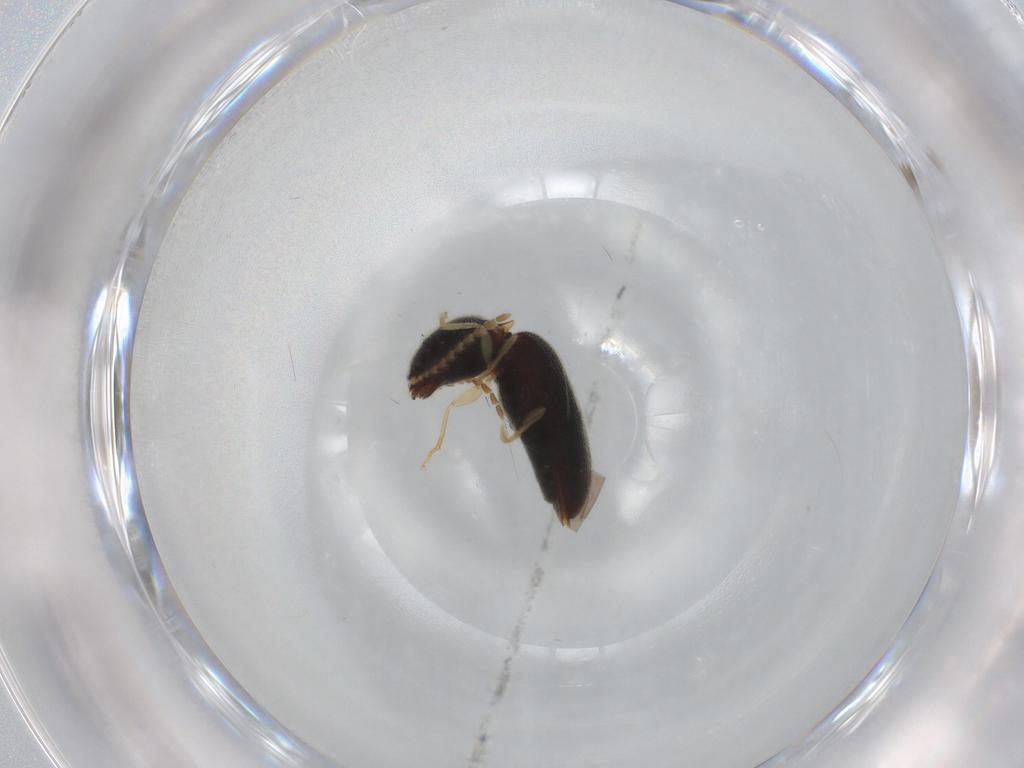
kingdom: Animalia
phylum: Arthropoda
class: Insecta
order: Coleoptera
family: Elateridae
